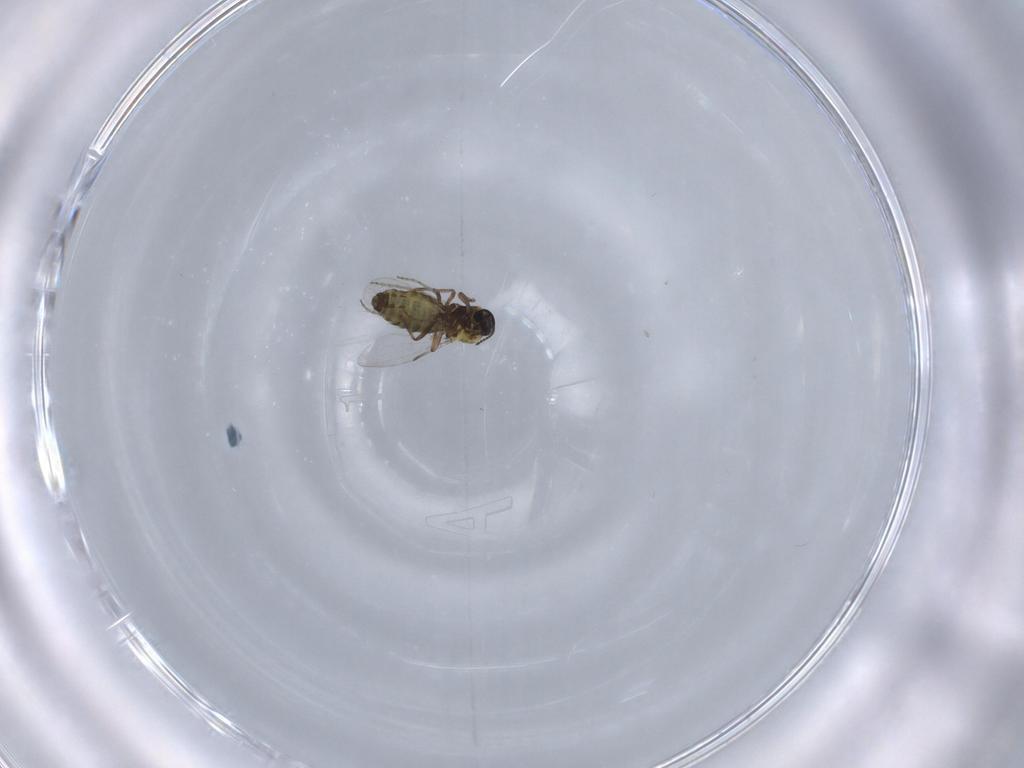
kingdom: Animalia
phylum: Arthropoda
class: Insecta
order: Diptera
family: Ceratopogonidae
